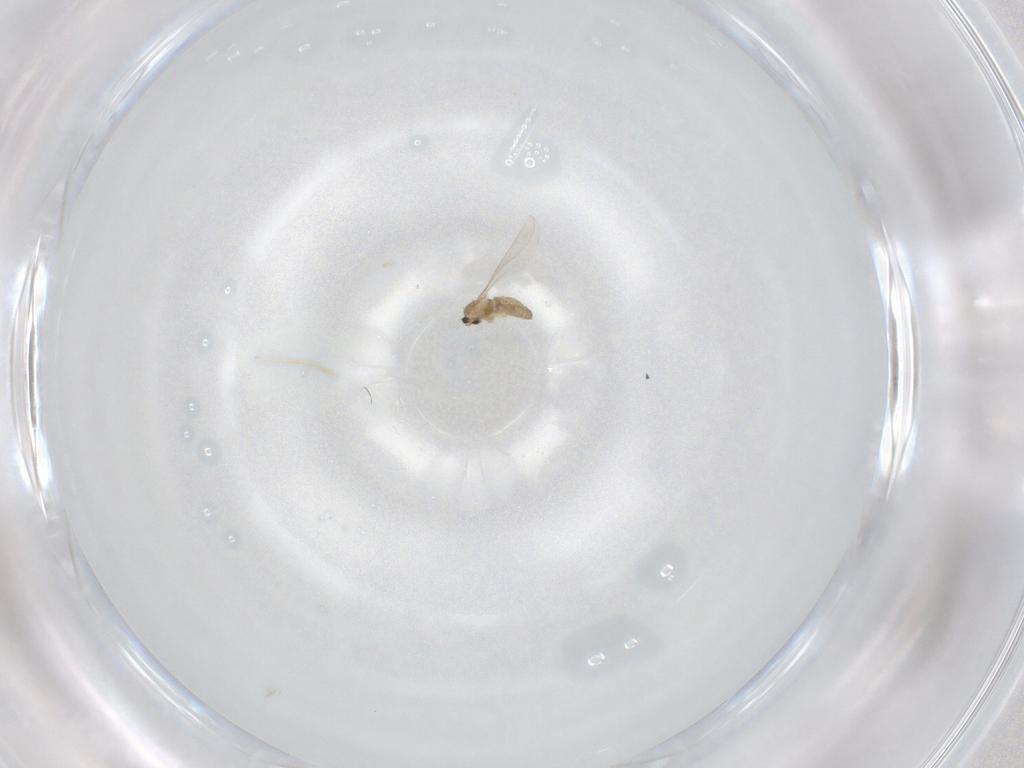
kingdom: Animalia
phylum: Arthropoda
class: Insecta
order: Diptera
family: Cecidomyiidae
